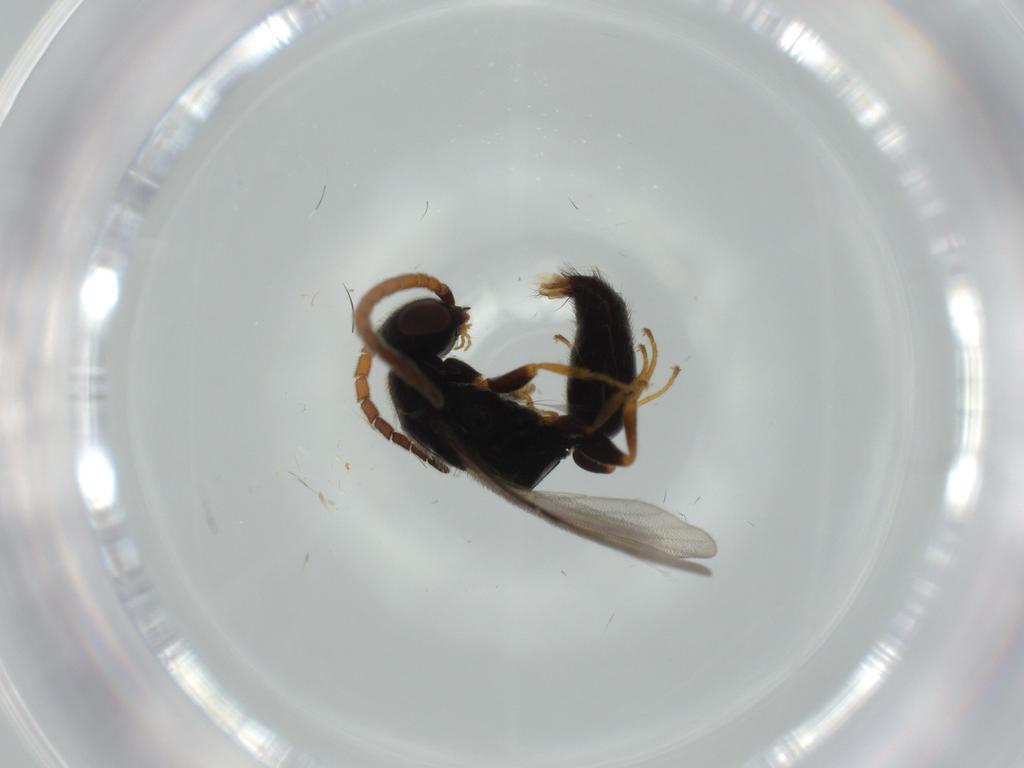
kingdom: Animalia
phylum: Arthropoda
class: Insecta
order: Hymenoptera
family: Bethylidae
